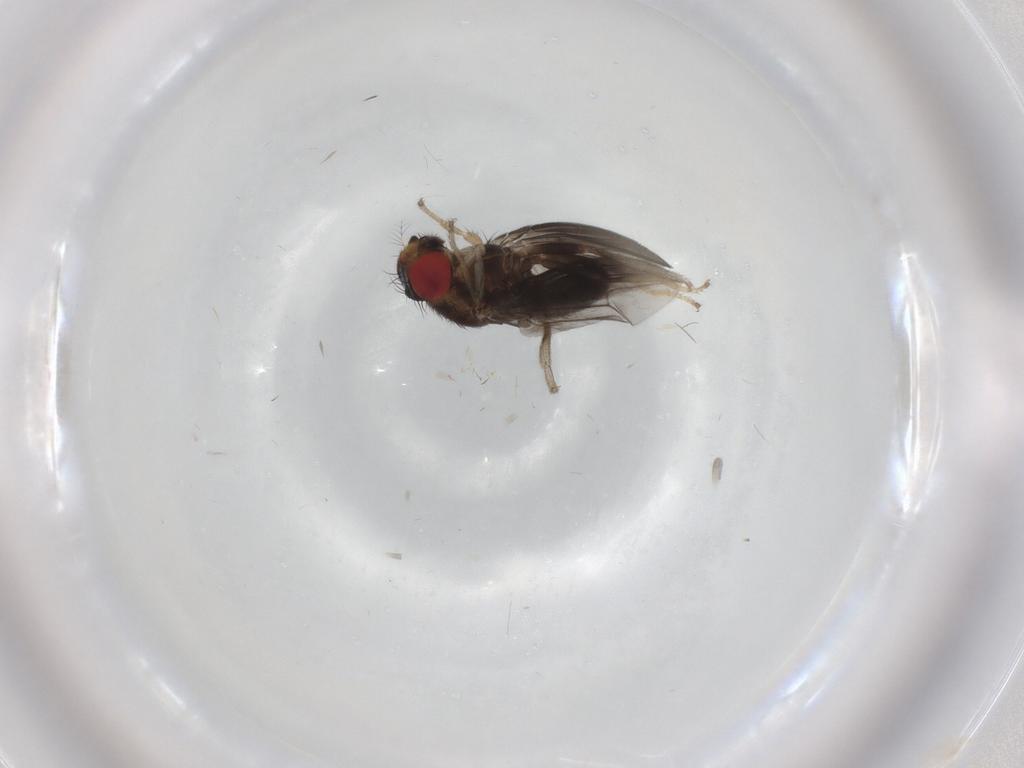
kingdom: Animalia
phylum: Arthropoda
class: Insecta
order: Diptera
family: Drosophilidae
